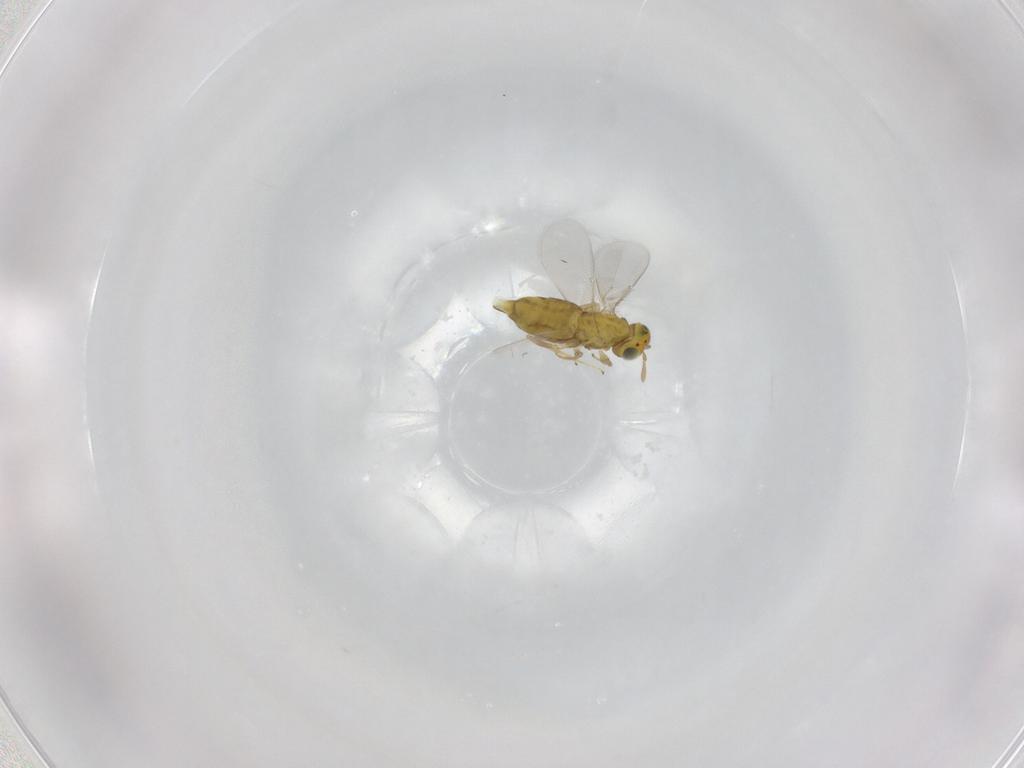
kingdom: Animalia
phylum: Arthropoda
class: Insecta
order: Hymenoptera
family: Aphelinidae
